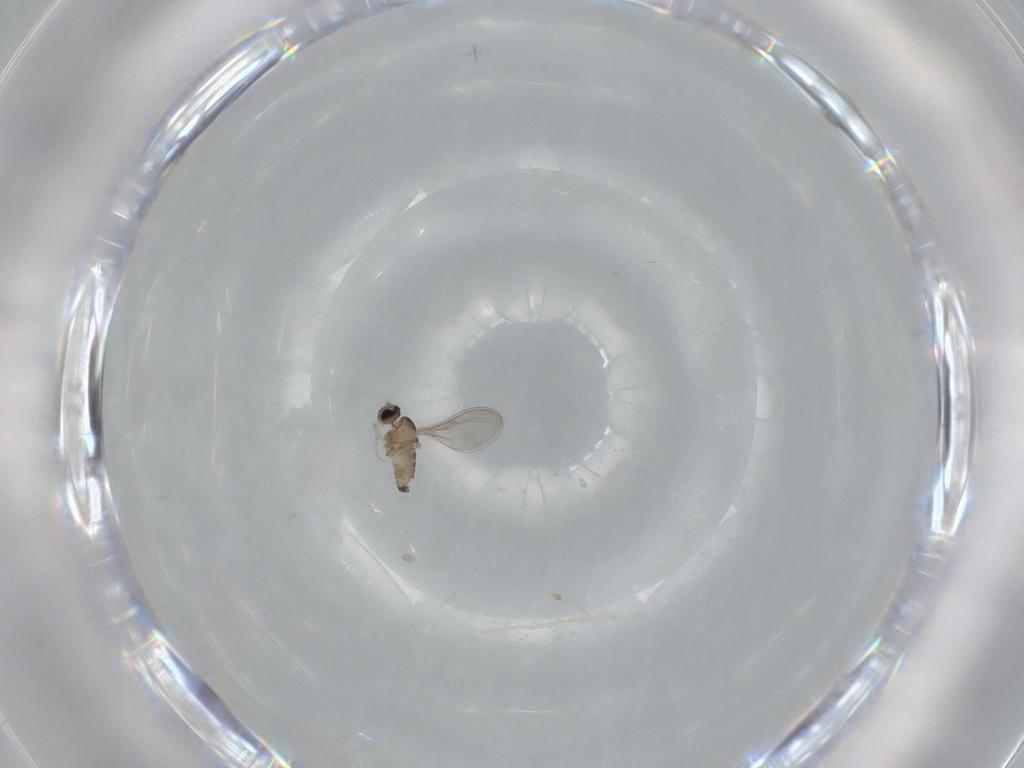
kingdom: Animalia
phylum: Arthropoda
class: Insecta
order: Diptera
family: Cecidomyiidae
